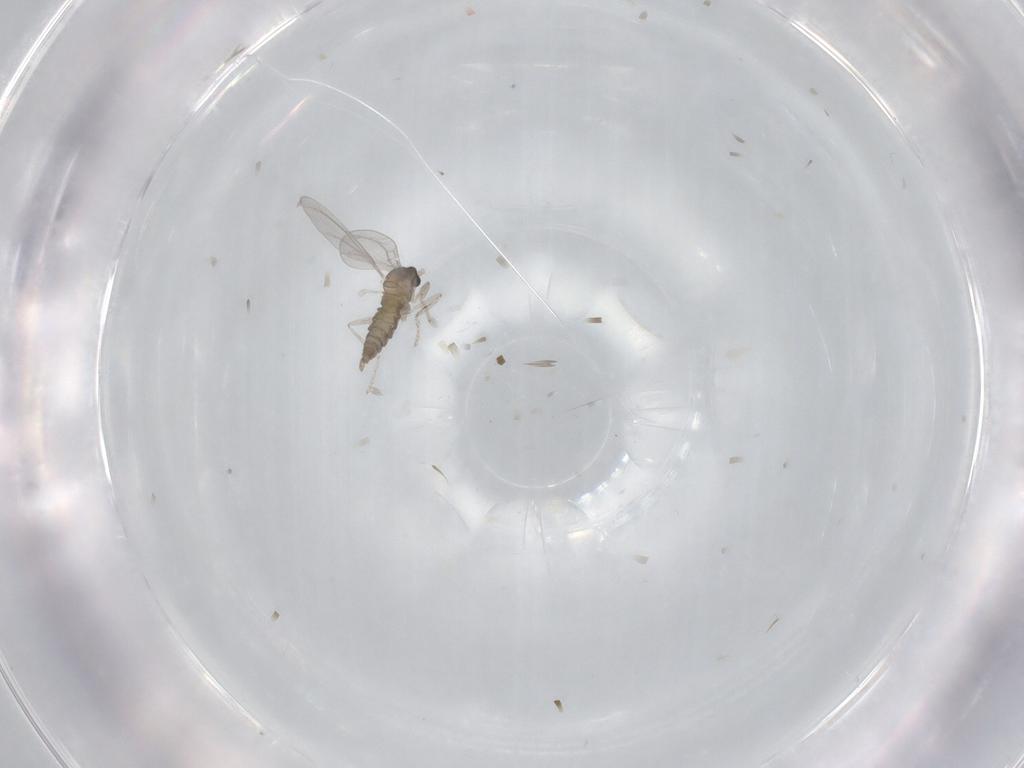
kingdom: Animalia
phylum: Arthropoda
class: Insecta
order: Diptera
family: Cecidomyiidae
